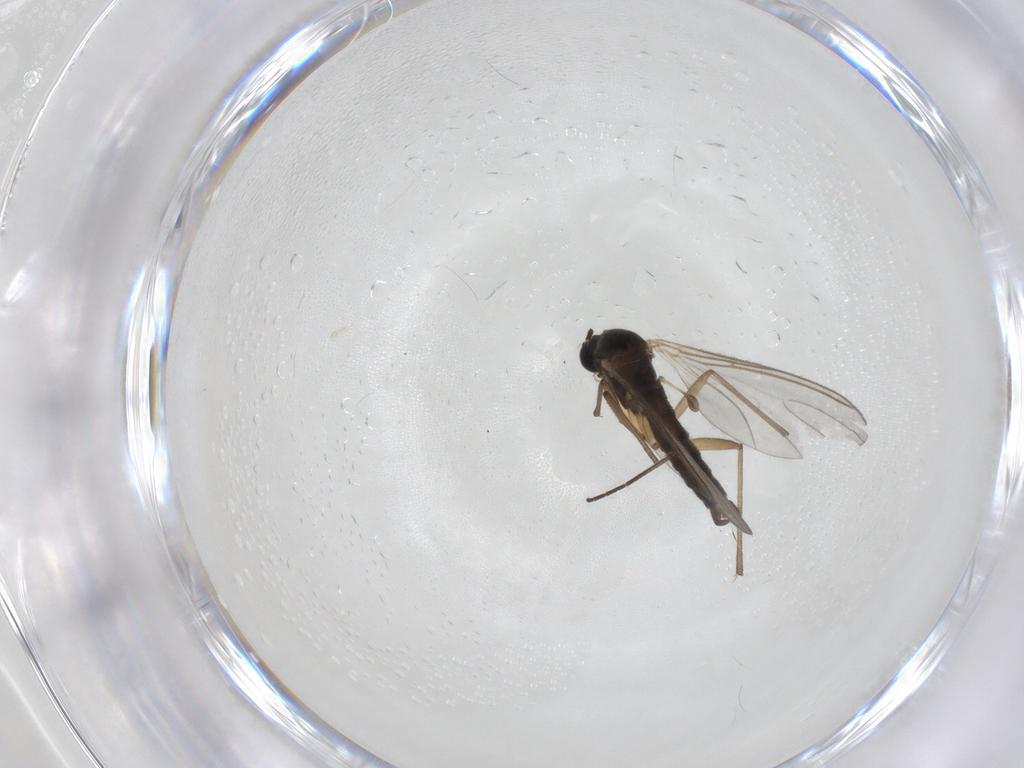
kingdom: Animalia
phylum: Arthropoda
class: Insecta
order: Diptera
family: Sciaridae
